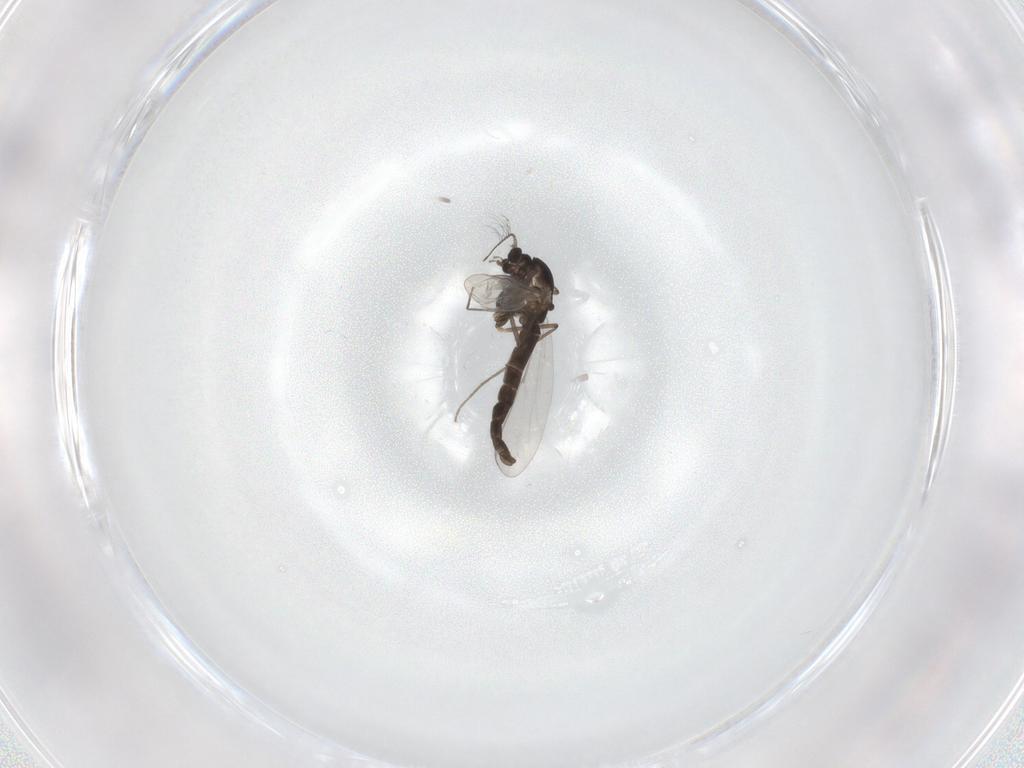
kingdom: Animalia
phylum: Arthropoda
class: Insecta
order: Diptera
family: Chironomidae
